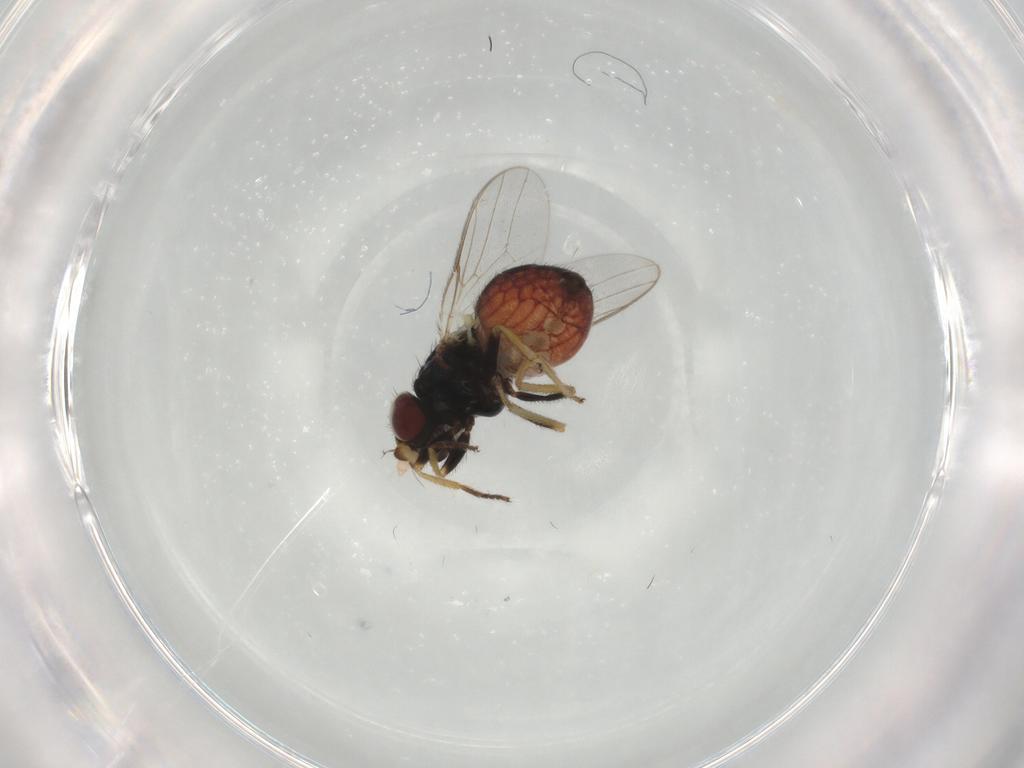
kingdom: Animalia
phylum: Arthropoda
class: Insecta
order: Diptera
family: Chloropidae
